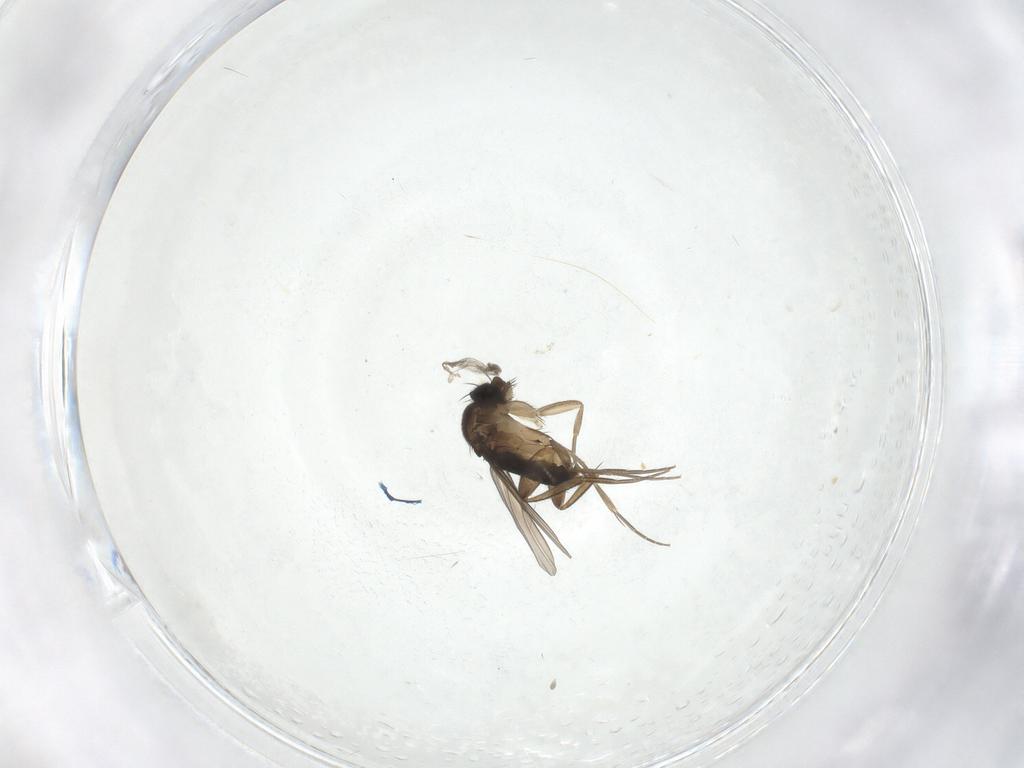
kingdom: Animalia
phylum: Arthropoda
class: Insecta
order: Diptera
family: Phoridae
